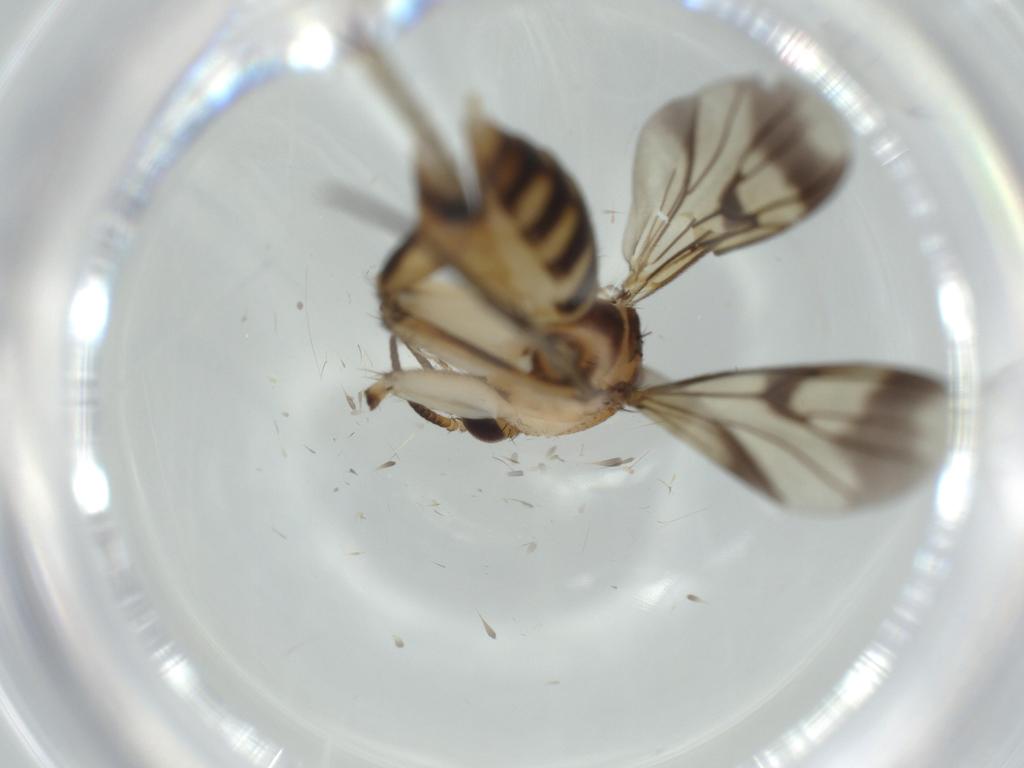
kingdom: Animalia
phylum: Arthropoda
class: Insecta
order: Diptera
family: Mycetophilidae
